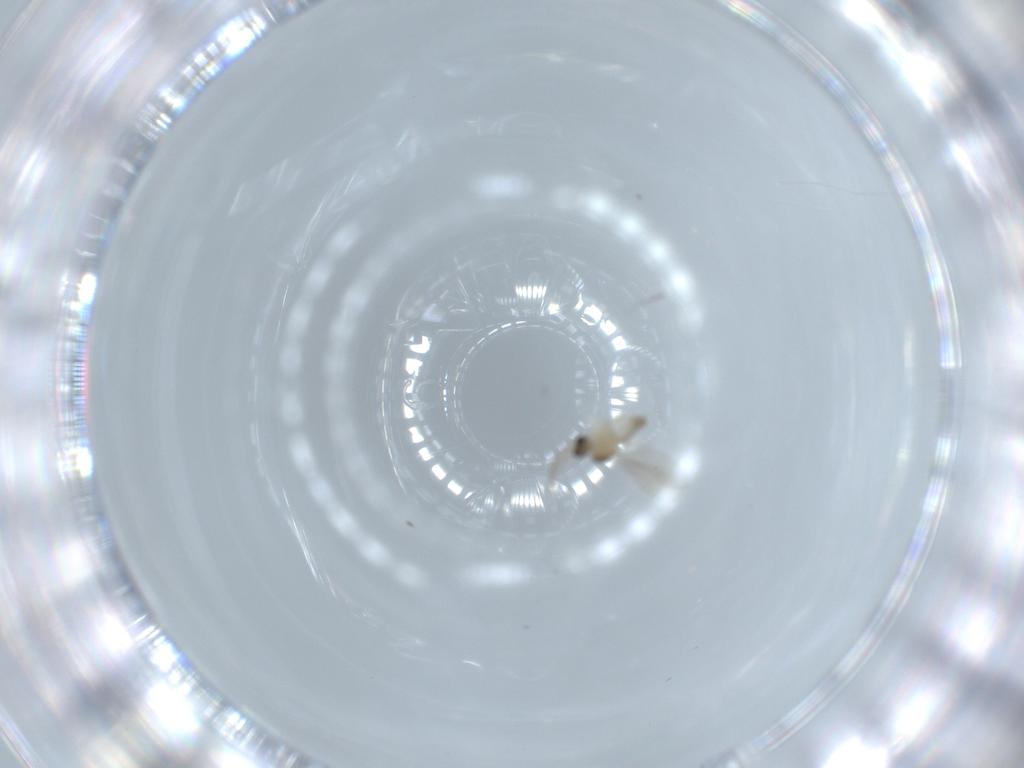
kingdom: Animalia
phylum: Arthropoda
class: Insecta
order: Diptera
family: Cecidomyiidae
